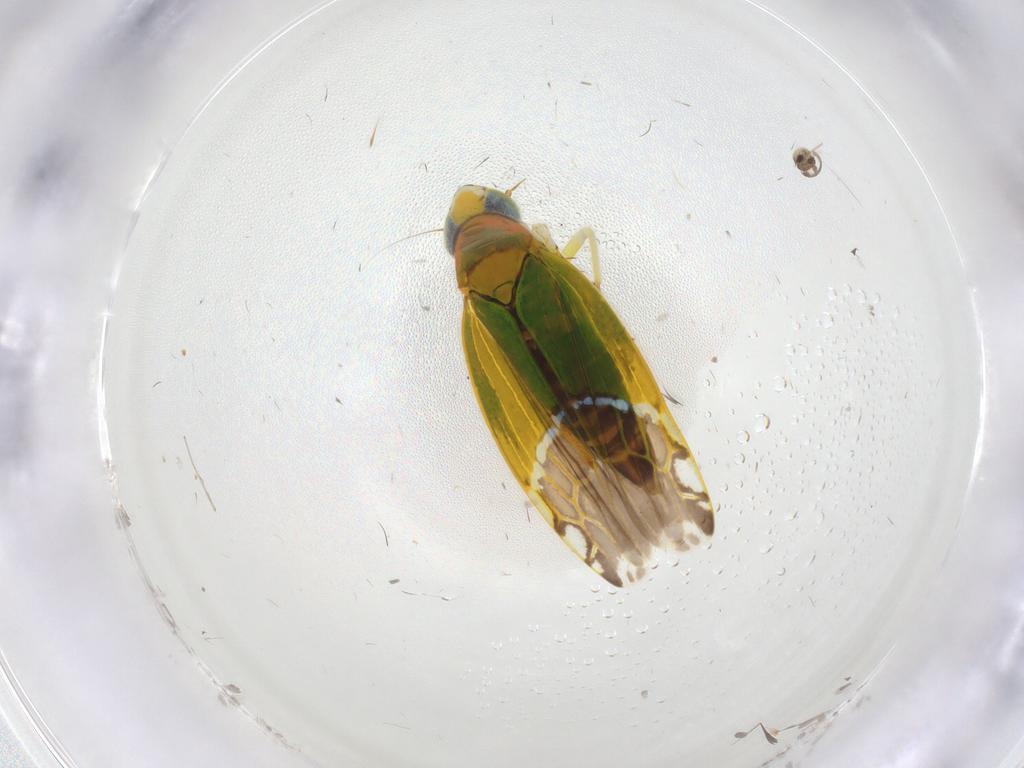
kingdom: Animalia
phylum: Arthropoda
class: Insecta
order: Hemiptera
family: Cicadellidae
